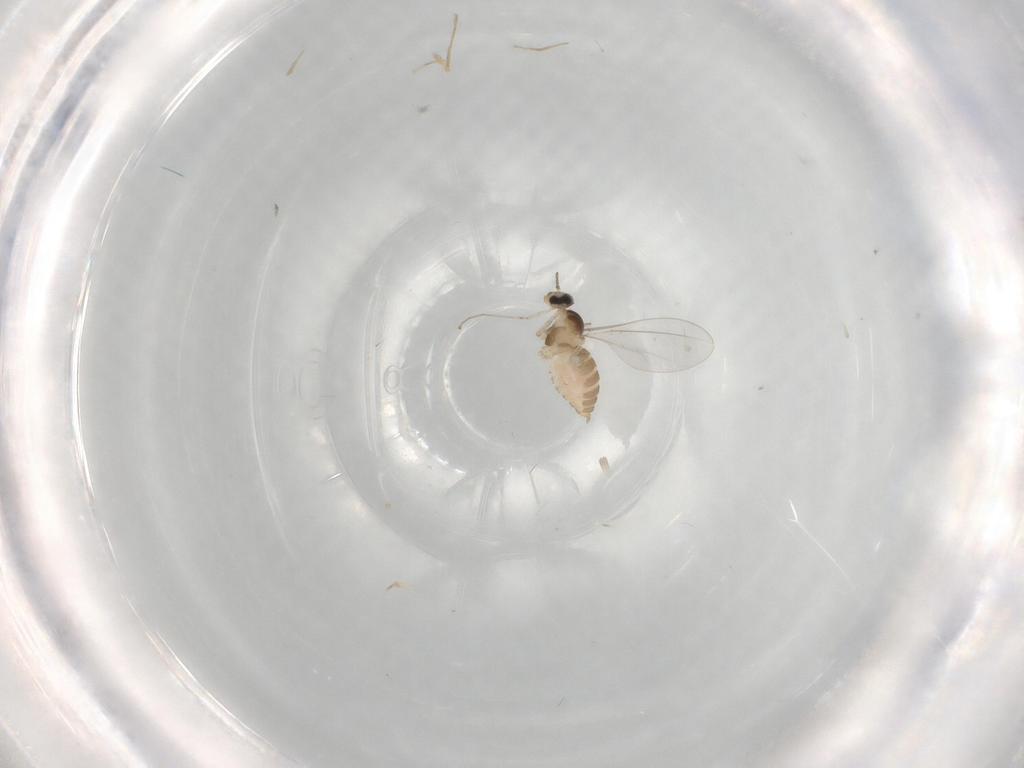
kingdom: Animalia
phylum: Arthropoda
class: Insecta
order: Diptera
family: Cecidomyiidae
